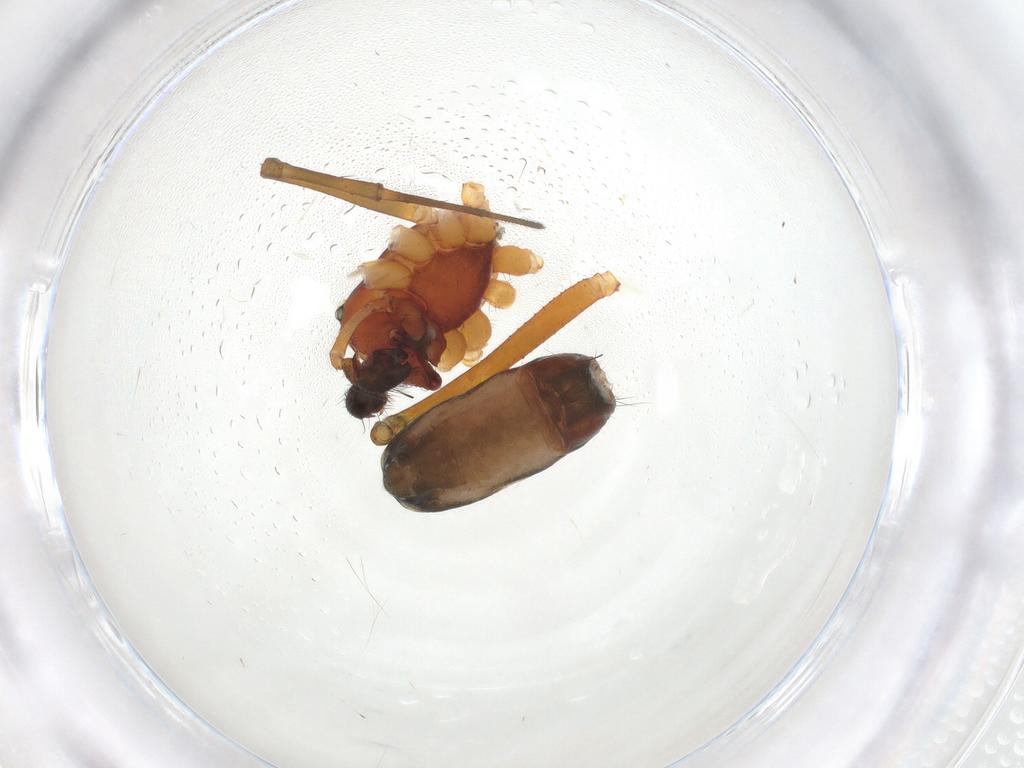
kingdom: Animalia
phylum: Arthropoda
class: Arachnida
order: Araneae
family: Linyphiidae
